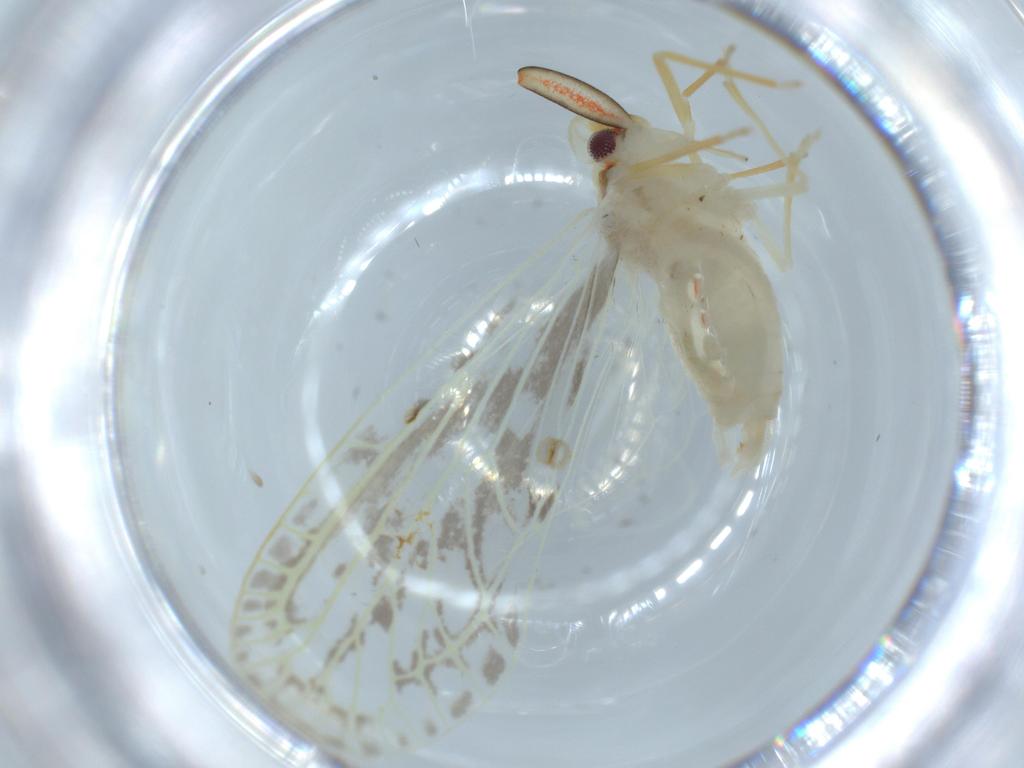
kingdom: Animalia
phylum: Arthropoda
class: Insecta
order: Hemiptera
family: Derbidae
